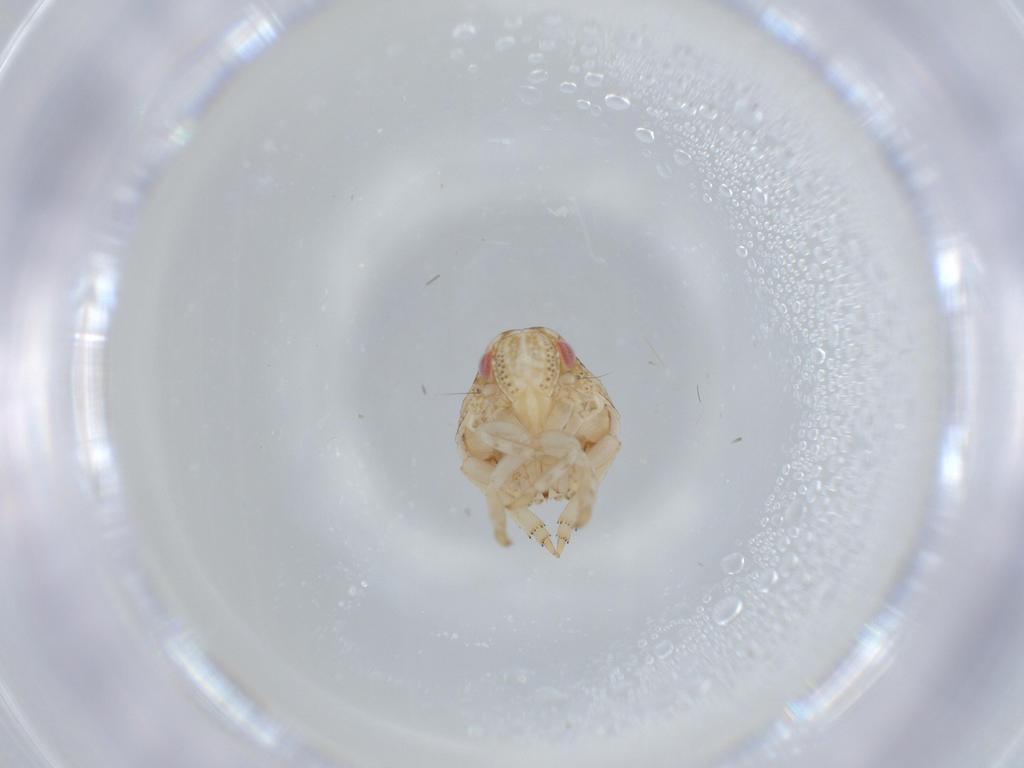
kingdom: Animalia
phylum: Arthropoda
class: Insecta
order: Hemiptera
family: Acanaloniidae
